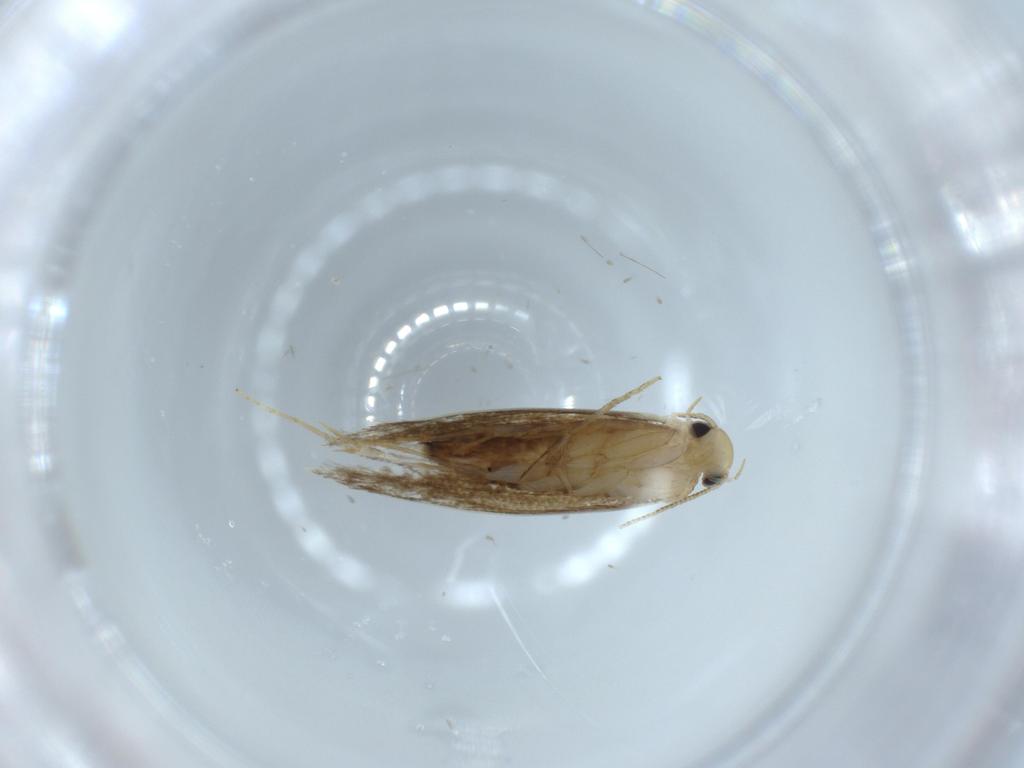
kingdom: Animalia
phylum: Arthropoda
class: Insecta
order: Lepidoptera
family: Tineidae
